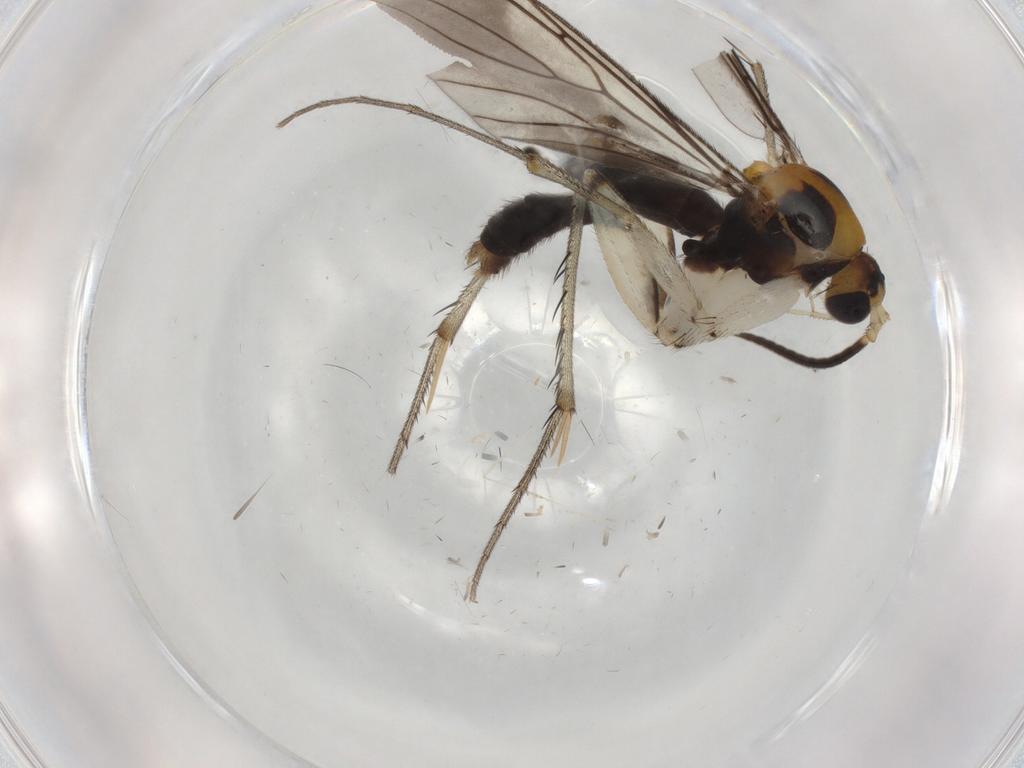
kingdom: Animalia
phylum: Arthropoda
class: Insecta
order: Diptera
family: Sciaridae
